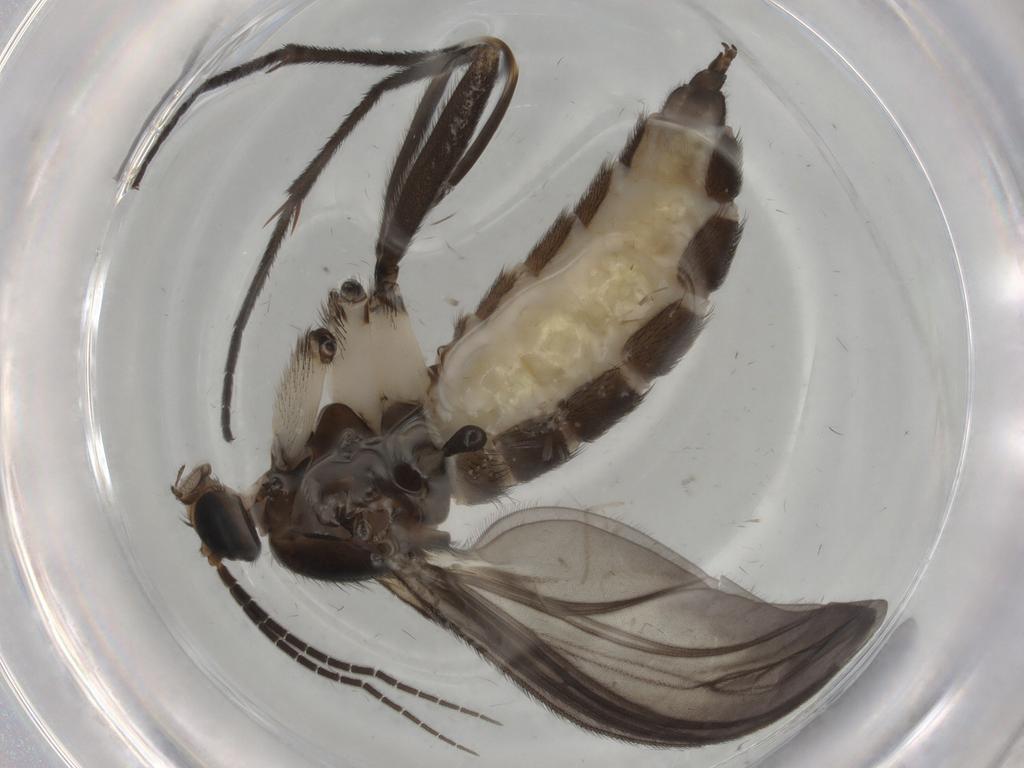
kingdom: Animalia
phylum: Arthropoda
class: Insecta
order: Diptera
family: Sciaridae
